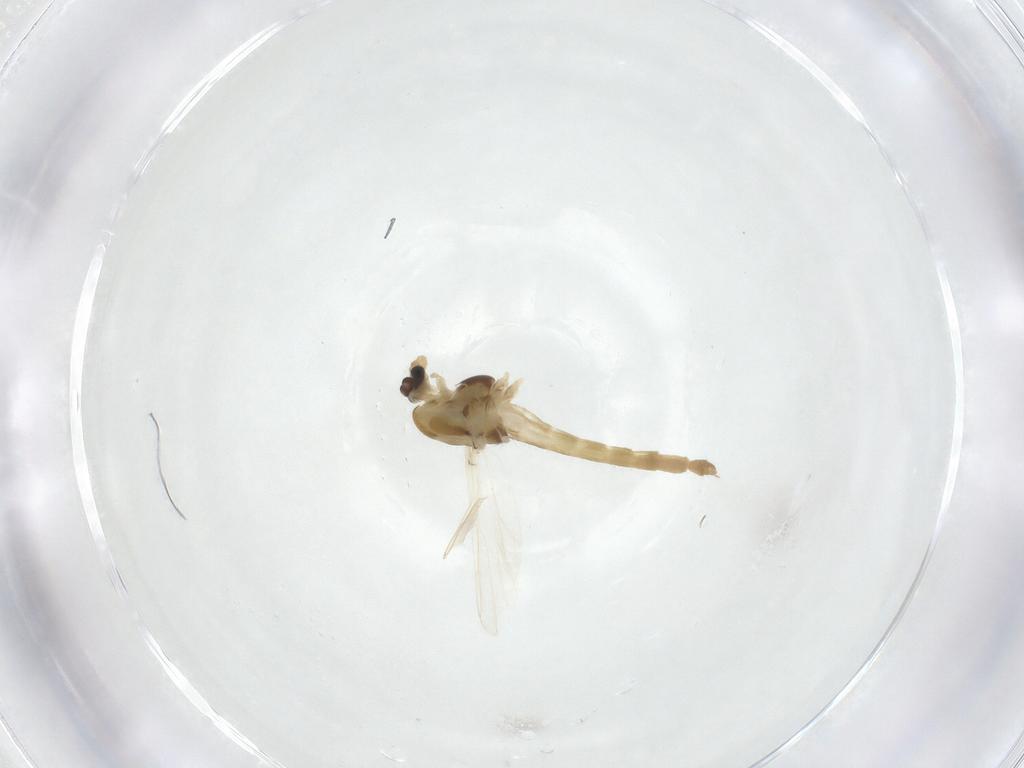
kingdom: Animalia
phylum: Arthropoda
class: Insecta
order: Diptera
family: Chironomidae
